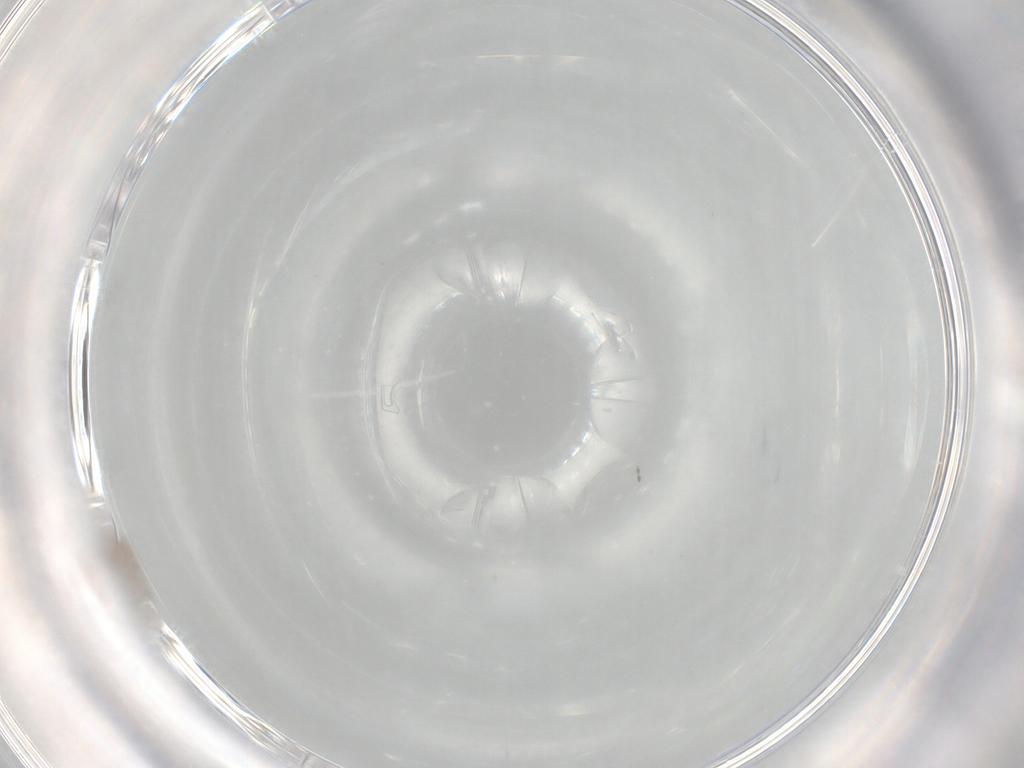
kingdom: Animalia
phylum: Arthropoda
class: Insecta
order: Diptera
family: Cecidomyiidae
